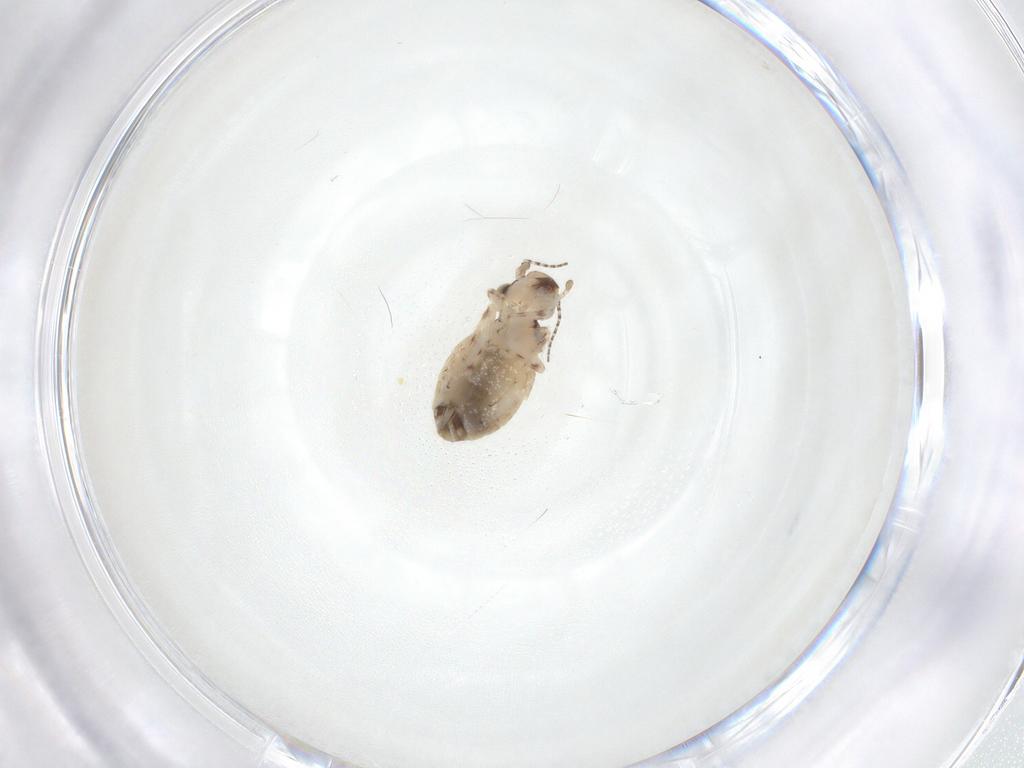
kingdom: Animalia
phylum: Arthropoda
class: Insecta
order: Psocodea
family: Trogiidae
